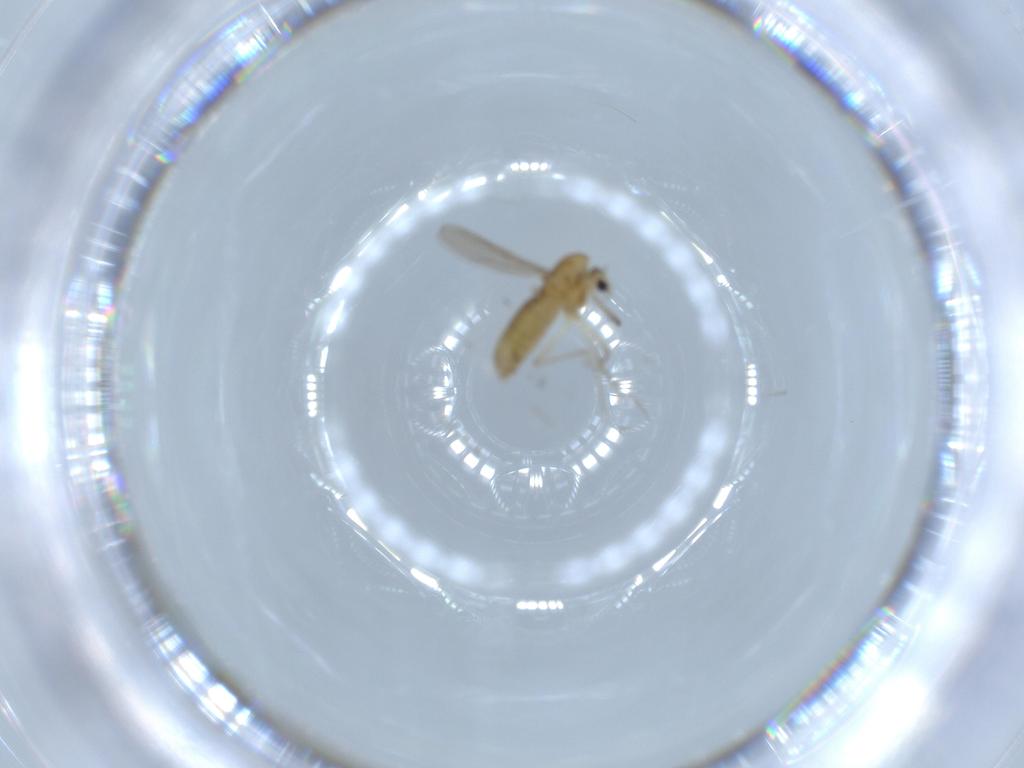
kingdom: Animalia
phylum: Arthropoda
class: Insecta
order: Diptera
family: Chironomidae
